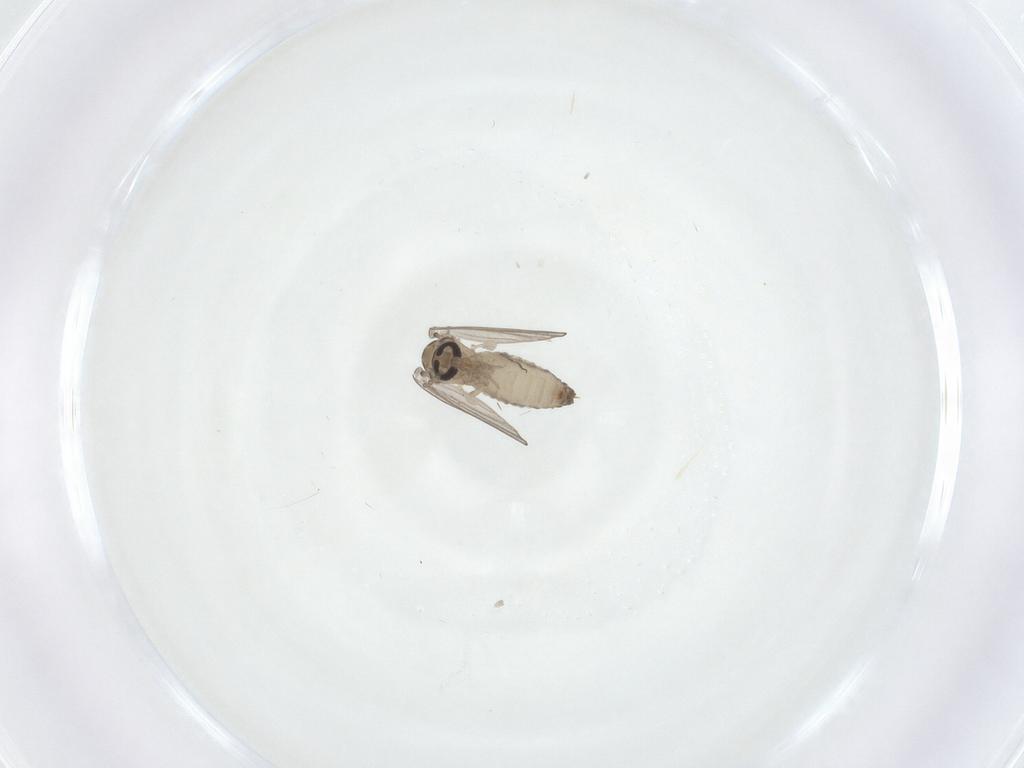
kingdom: Animalia
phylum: Arthropoda
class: Insecta
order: Diptera
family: Psychodidae
